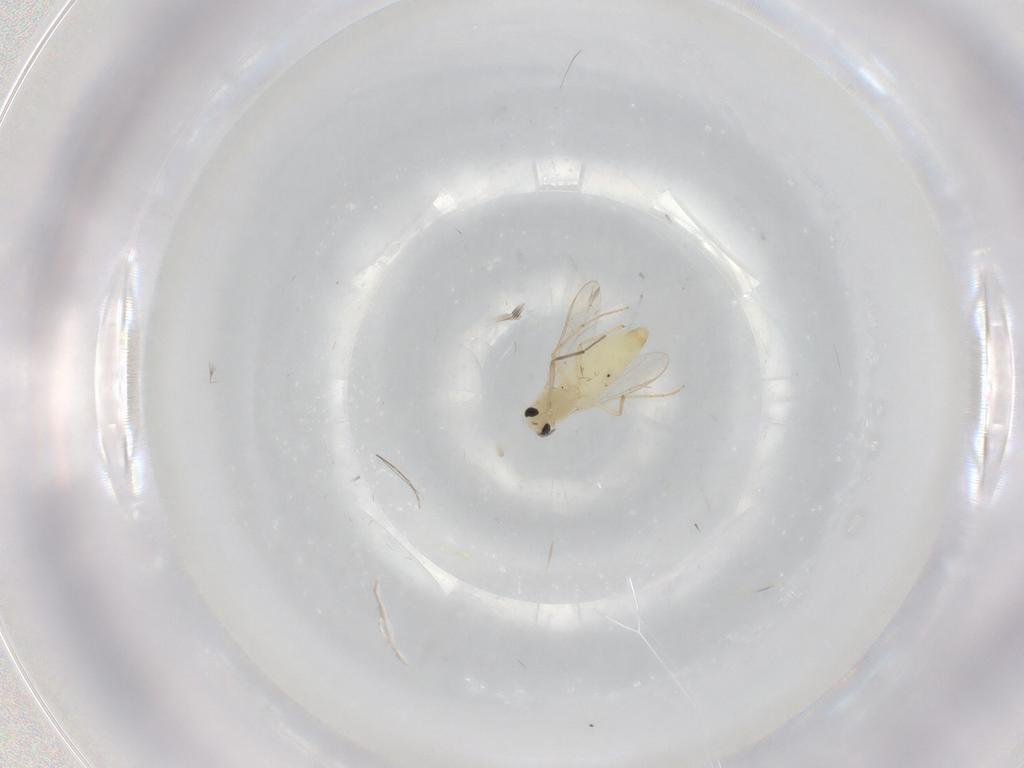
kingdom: Animalia
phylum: Arthropoda
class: Insecta
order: Diptera
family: Chironomidae
